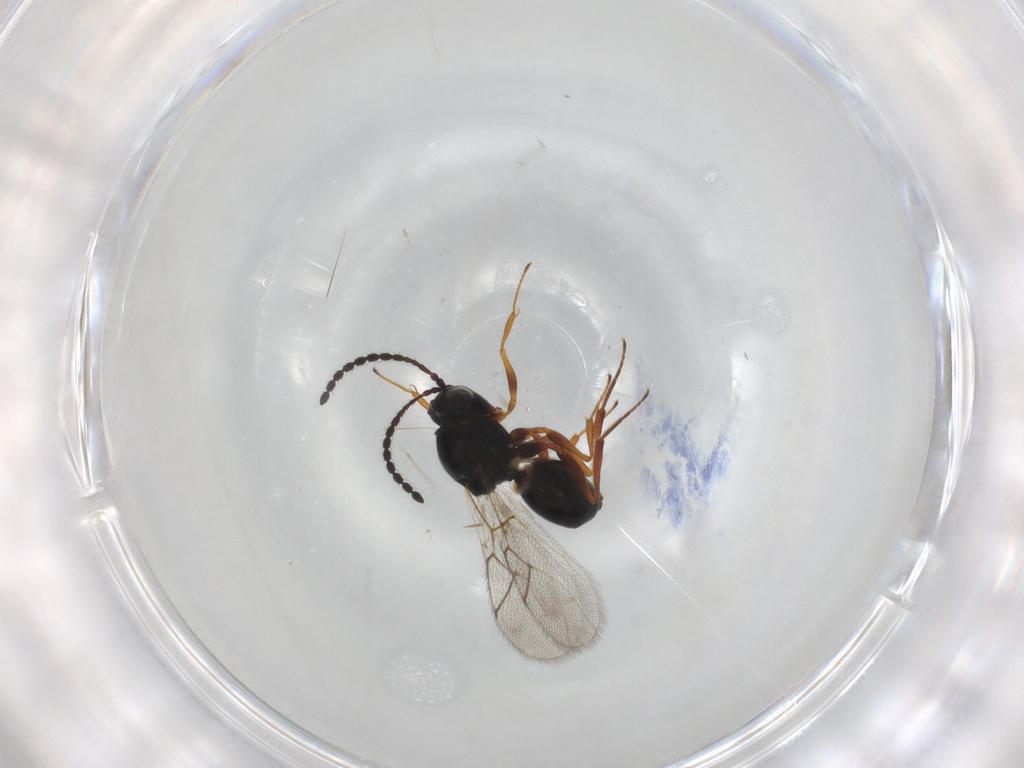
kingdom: Animalia
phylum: Arthropoda
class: Insecta
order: Hymenoptera
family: Figitidae
